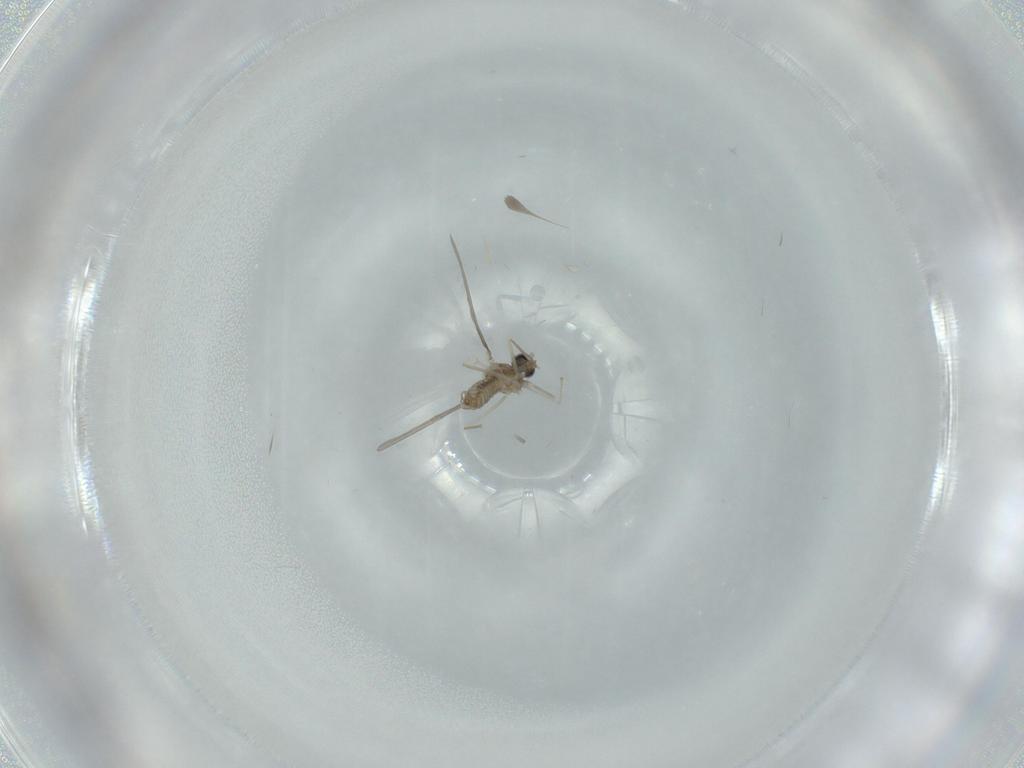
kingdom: Animalia
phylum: Arthropoda
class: Insecta
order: Diptera
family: Cecidomyiidae
